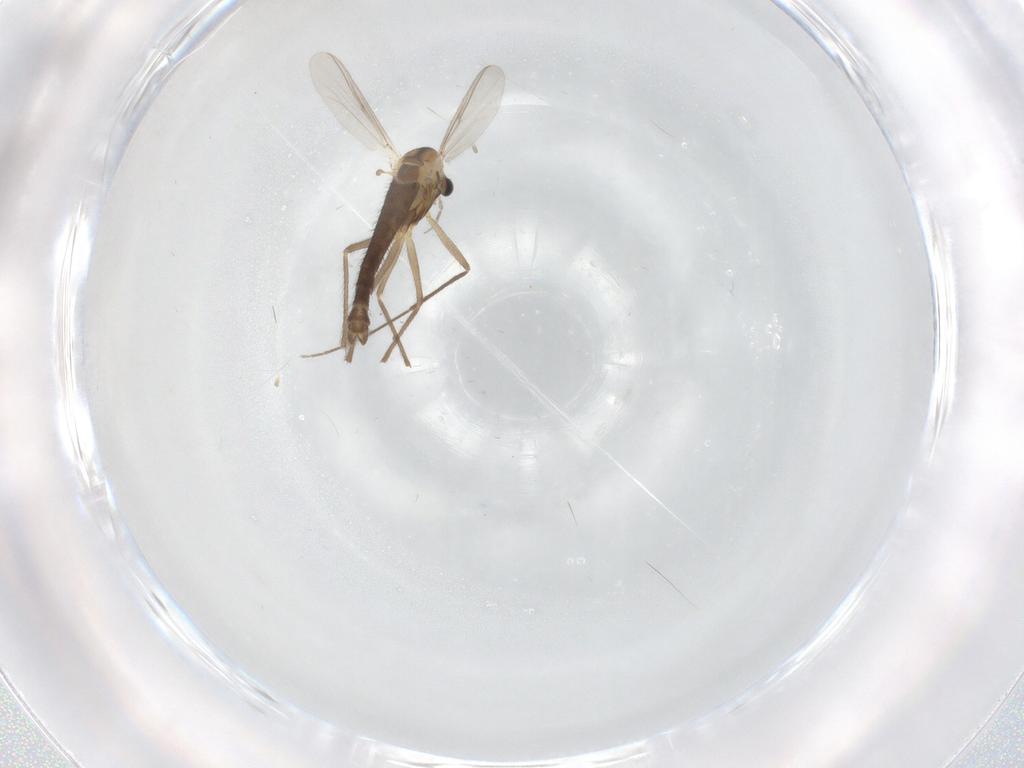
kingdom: Animalia
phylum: Arthropoda
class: Insecta
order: Diptera
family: Chironomidae
